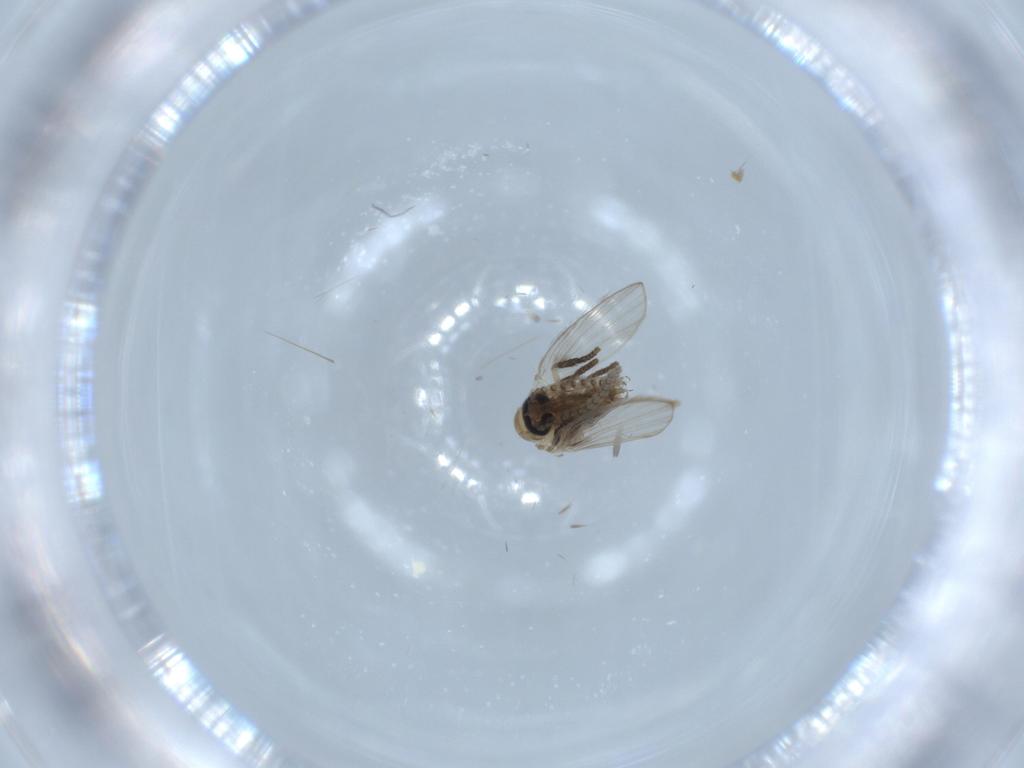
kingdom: Animalia
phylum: Arthropoda
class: Insecta
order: Diptera
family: Psychodidae
